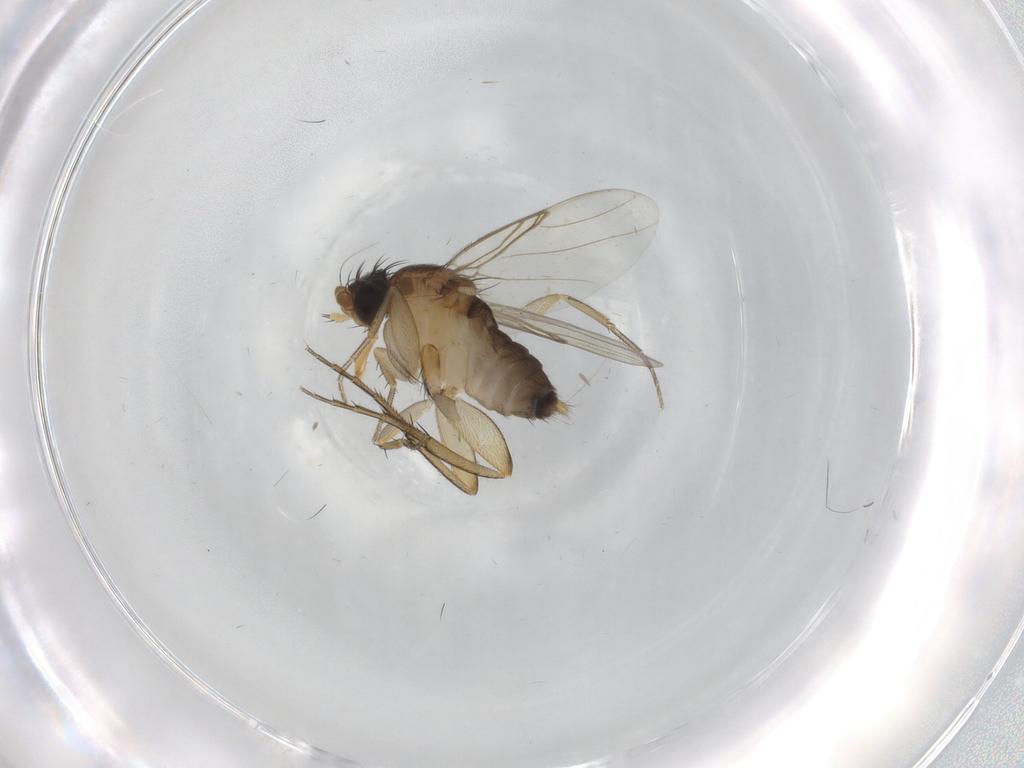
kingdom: Animalia
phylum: Arthropoda
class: Insecta
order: Diptera
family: Phoridae
